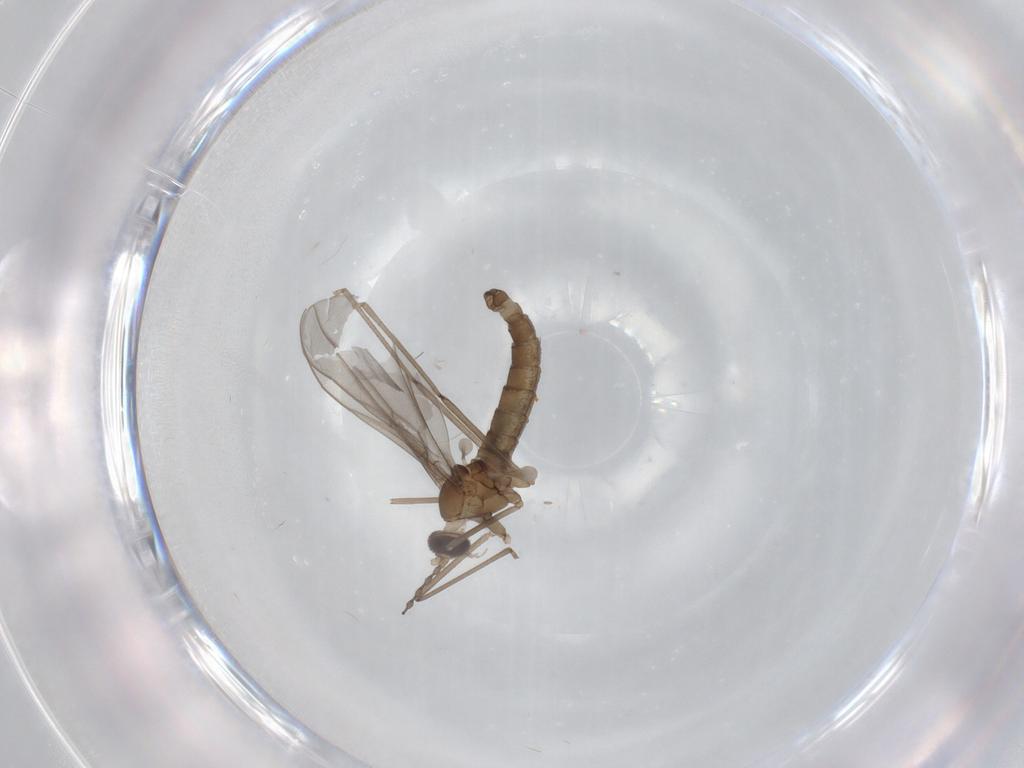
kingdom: Animalia
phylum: Arthropoda
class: Insecta
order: Diptera
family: Cecidomyiidae
